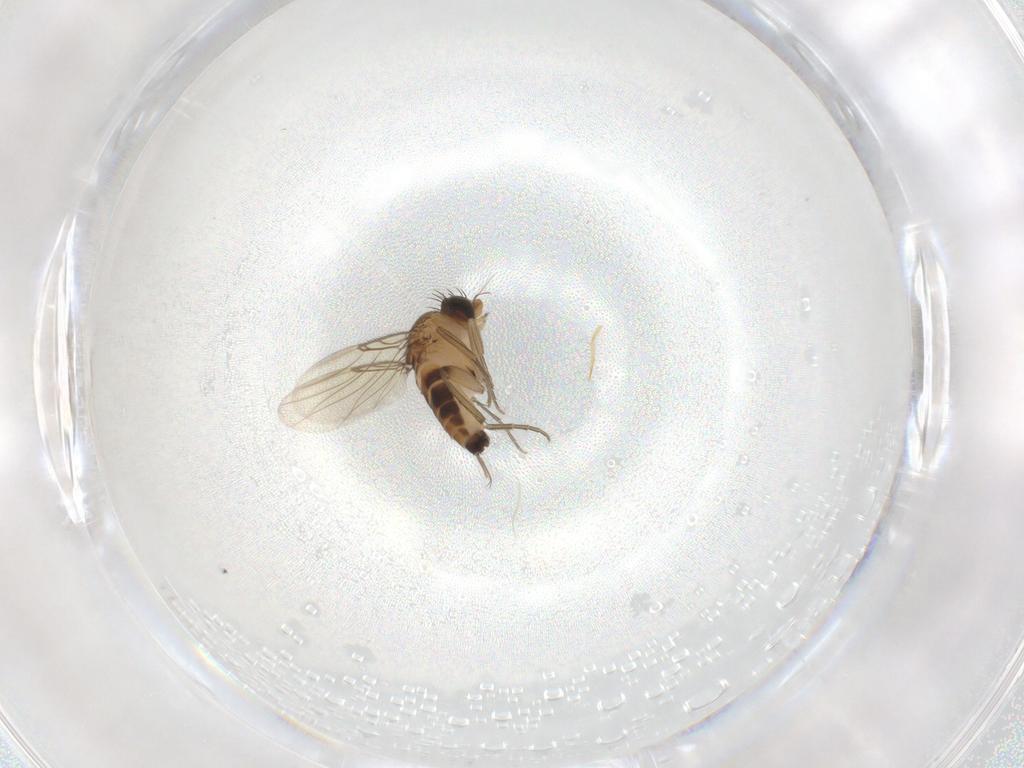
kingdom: Animalia
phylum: Arthropoda
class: Insecta
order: Diptera
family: Phoridae
